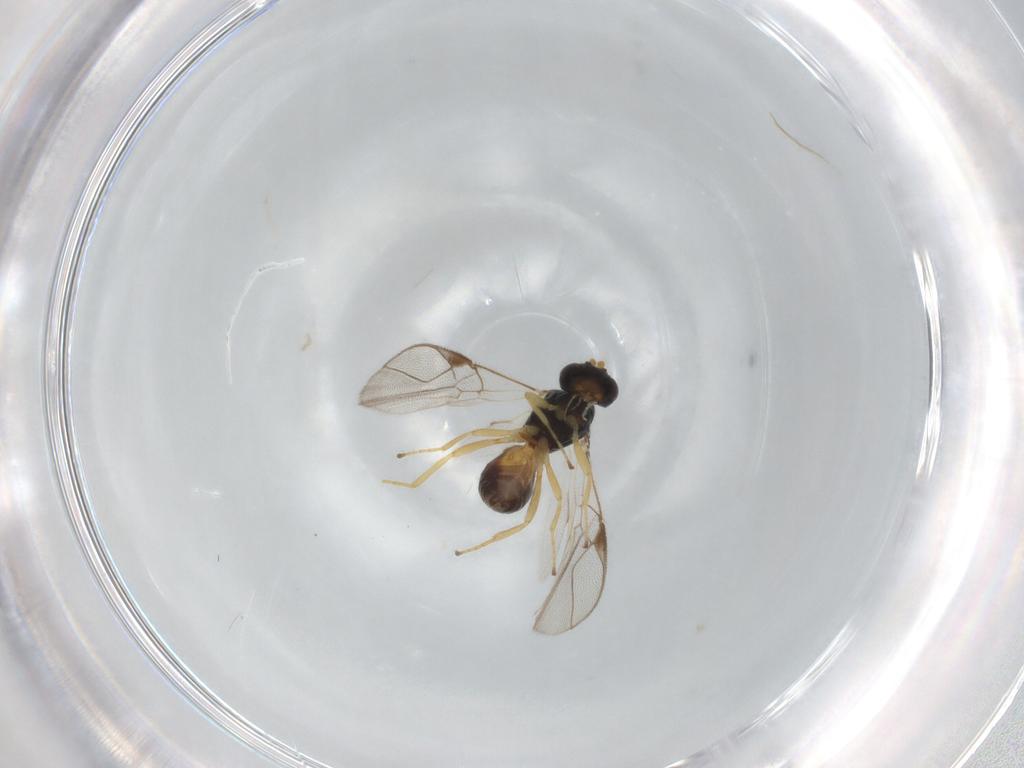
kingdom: Animalia
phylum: Arthropoda
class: Insecta
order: Hymenoptera
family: Braconidae
